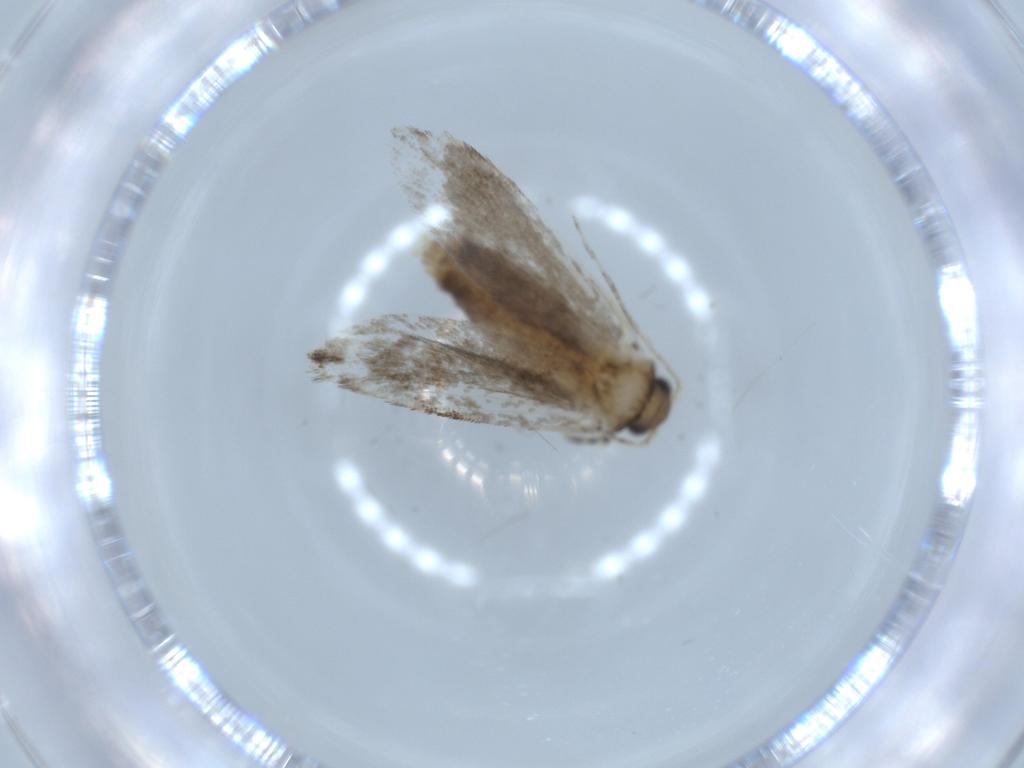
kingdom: Animalia
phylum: Arthropoda
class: Insecta
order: Lepidoptera
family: Tineidae
